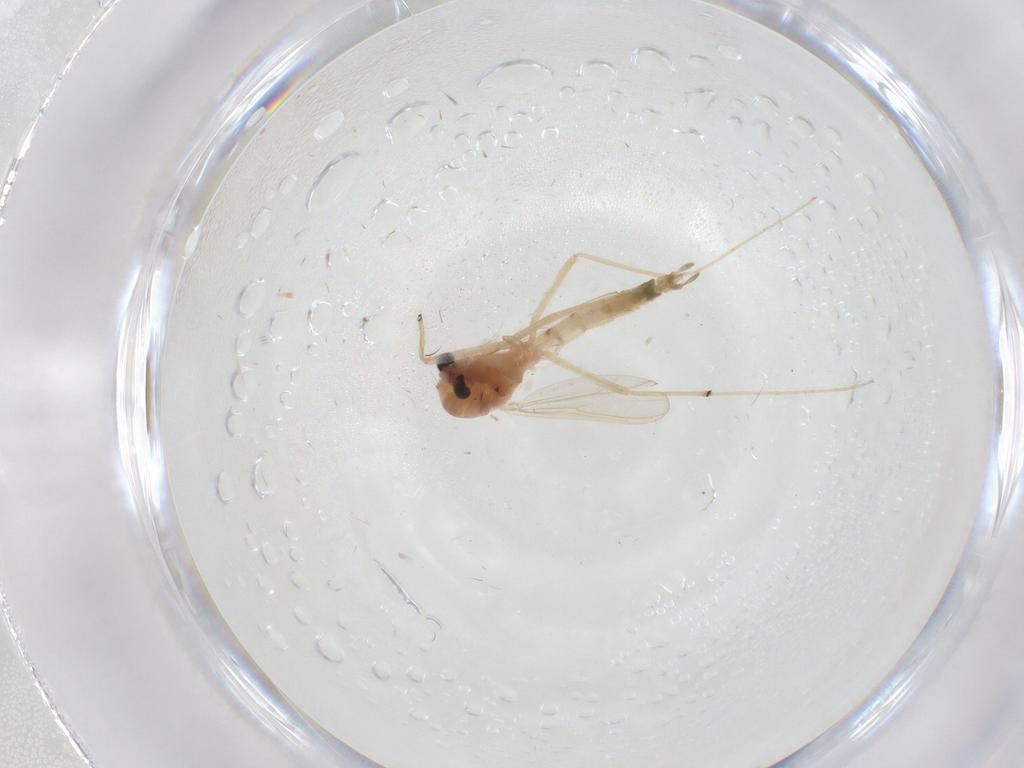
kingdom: Animalia
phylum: Arthropoda
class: Insecta
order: Diptera
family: Chironomidae
